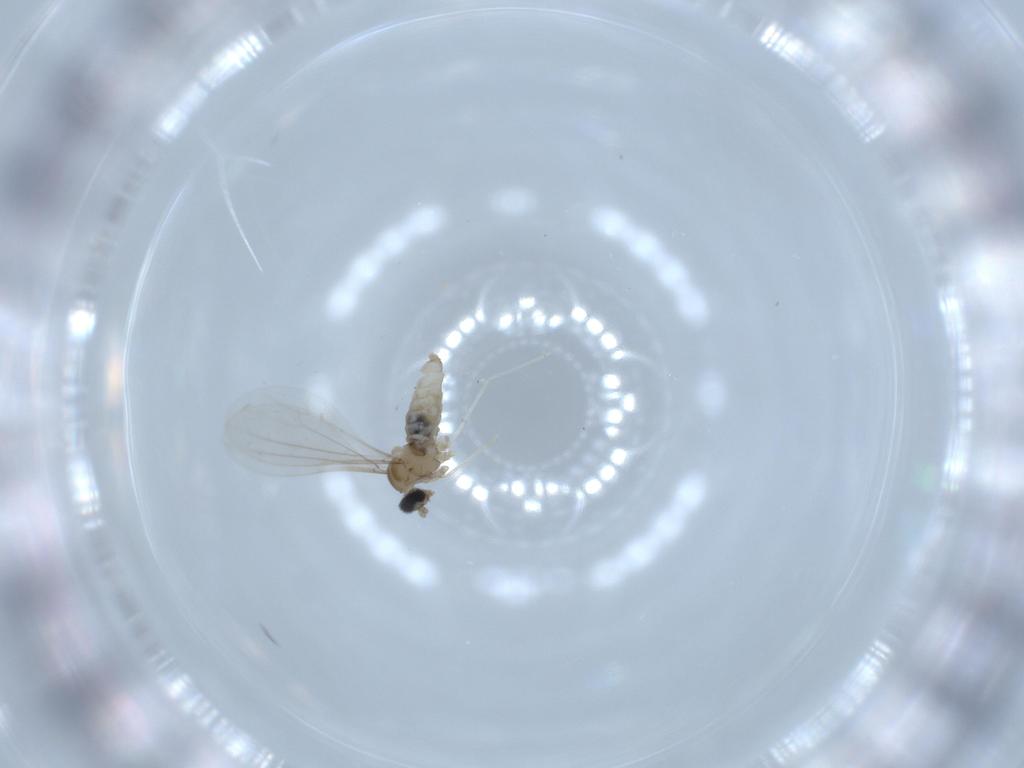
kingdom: Animalia
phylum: Arthropoda
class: Insecta
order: Diptera
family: Cecidomyiidae
